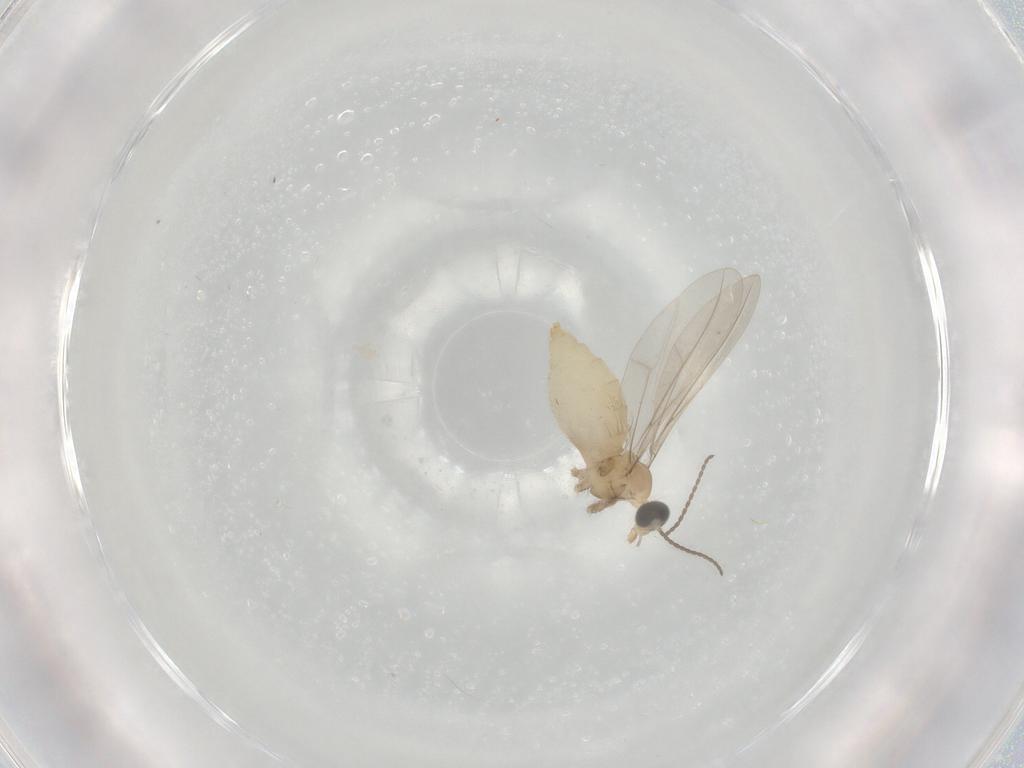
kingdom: Animalia
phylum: Arthropoda
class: Insecta
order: Diptera
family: Cecidomyiidae
